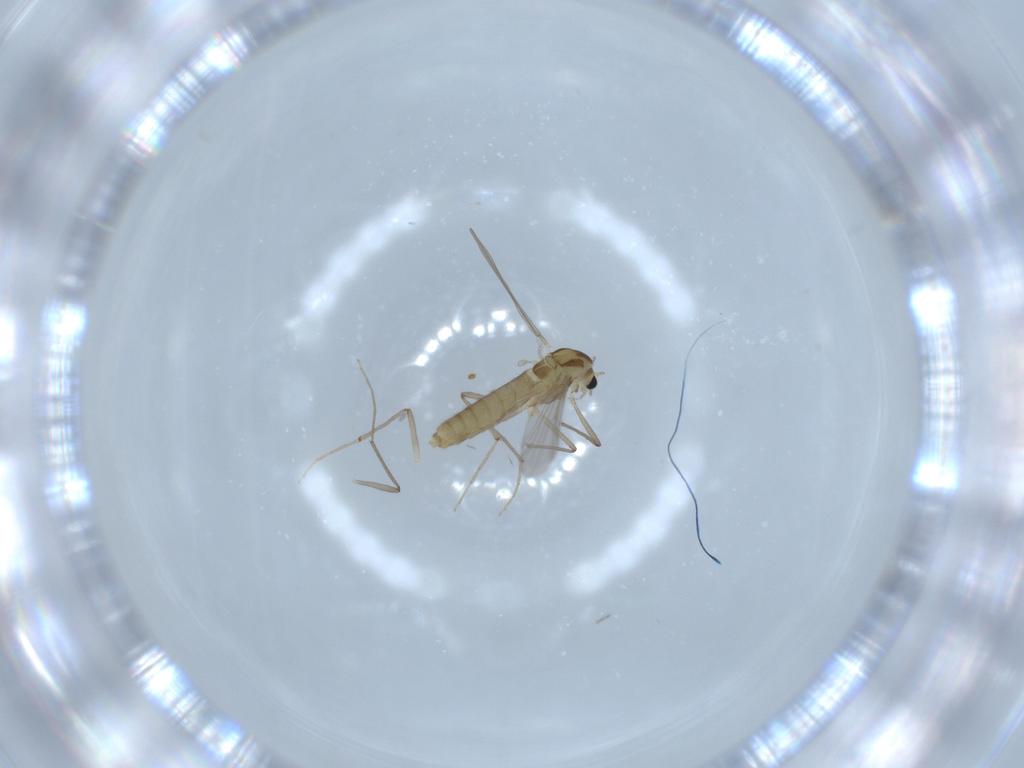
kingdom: Animalia
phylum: Arthropoda
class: Insecta
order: Diptera
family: Chironomidae
